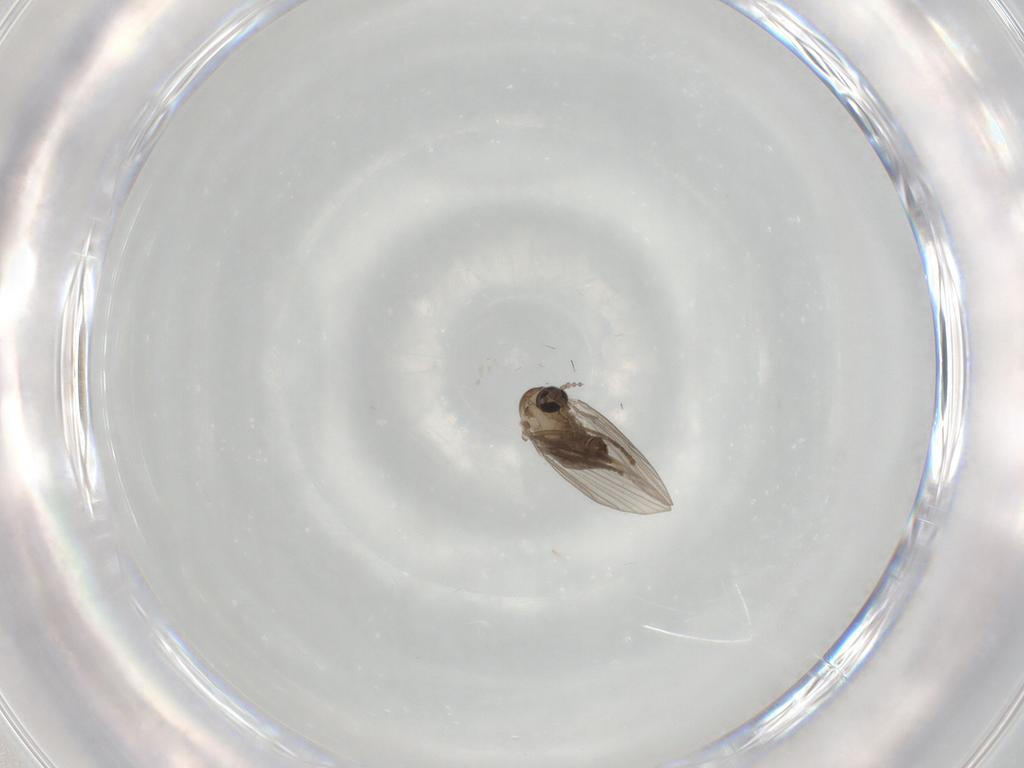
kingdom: Animalia
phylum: Arthropoda
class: Insecta
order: Diptera
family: Psychodidae
